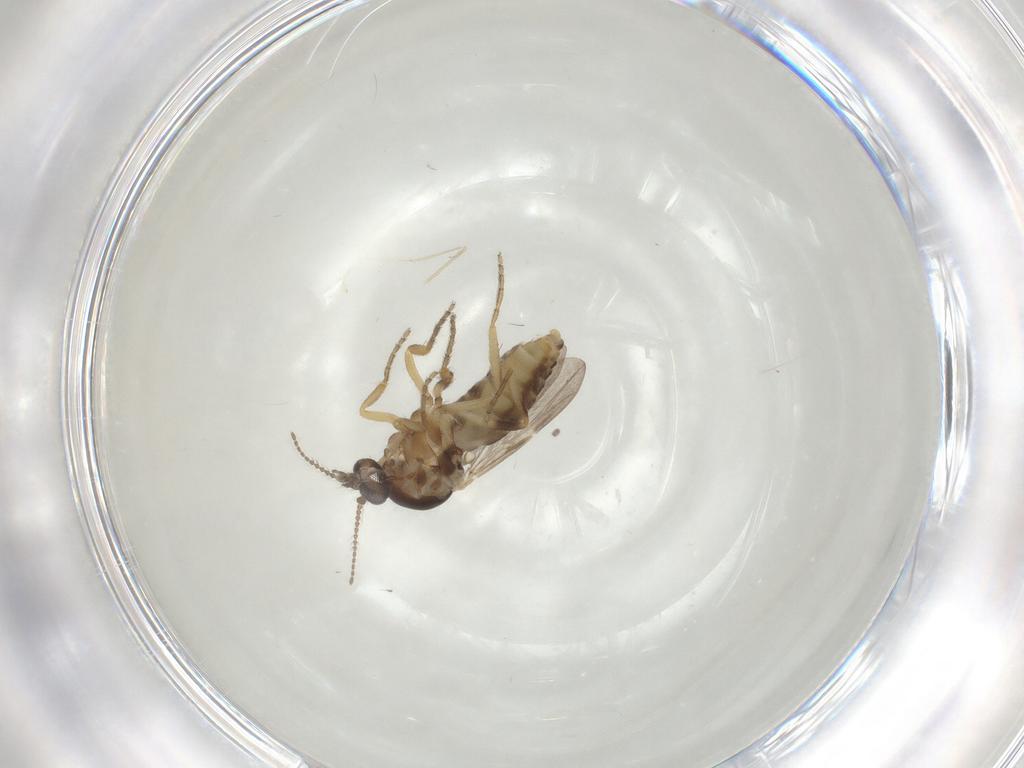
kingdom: Animalia
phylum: Arthropoda
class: Insecta
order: Diptera
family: Ceratopogonidae
